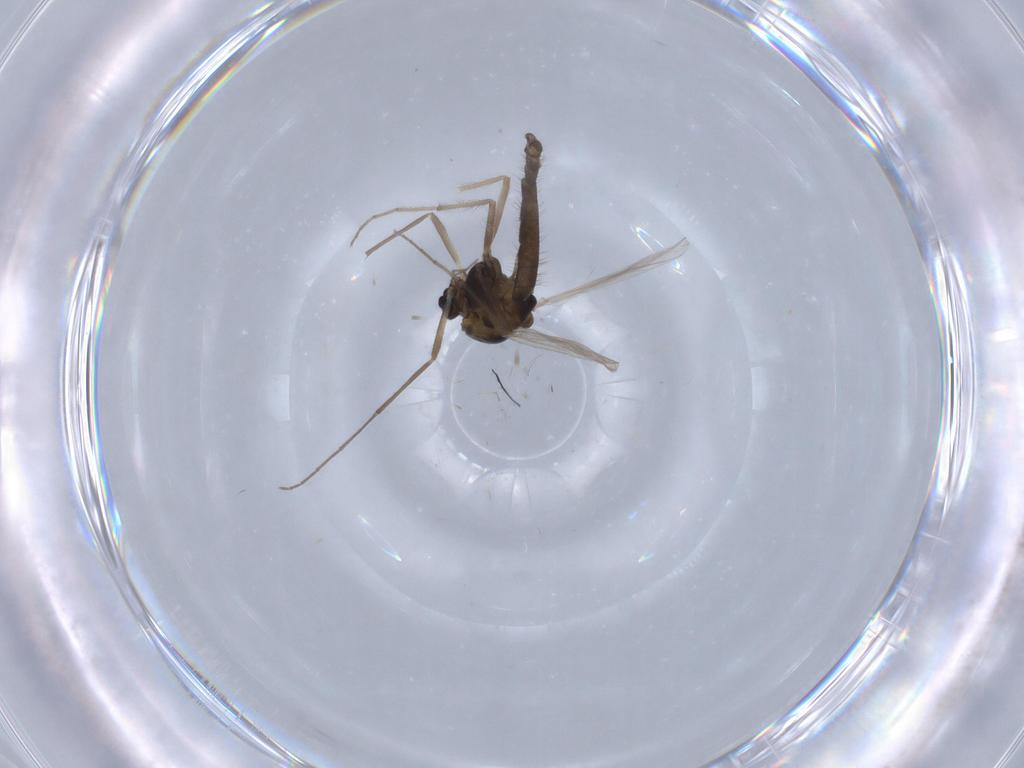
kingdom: Animalia
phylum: Arthropoda
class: Insecta
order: Diptera
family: Chironomidae
